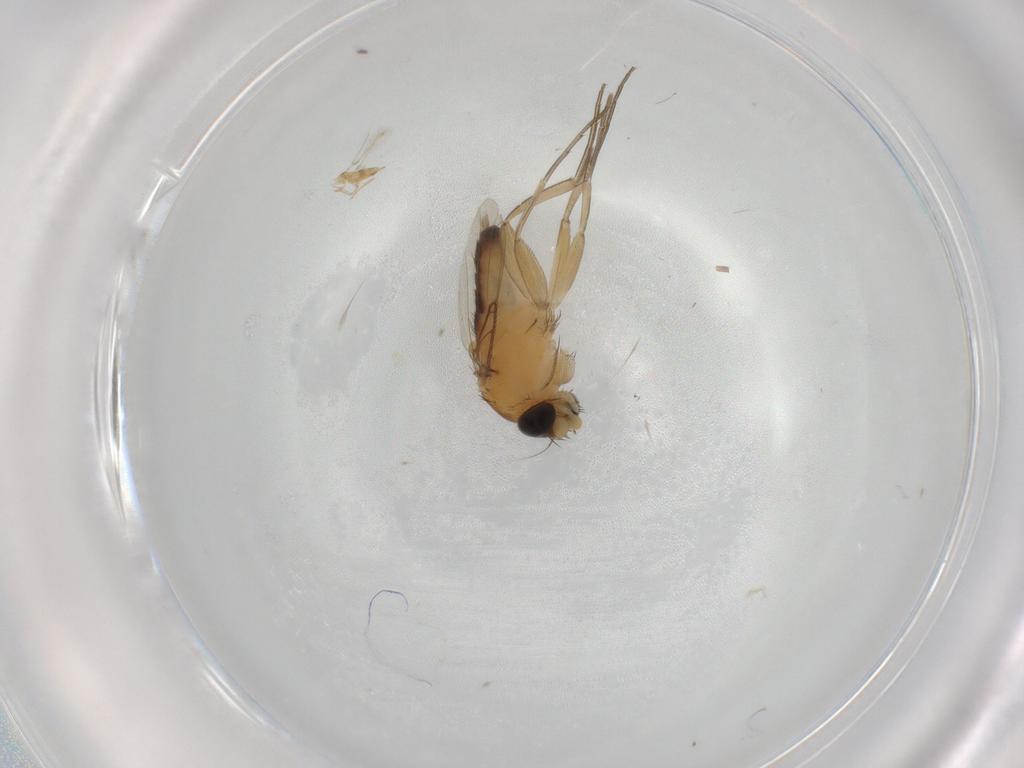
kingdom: Animalia
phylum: Arthropoda
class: Insecta
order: Diptera
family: Phoridae
